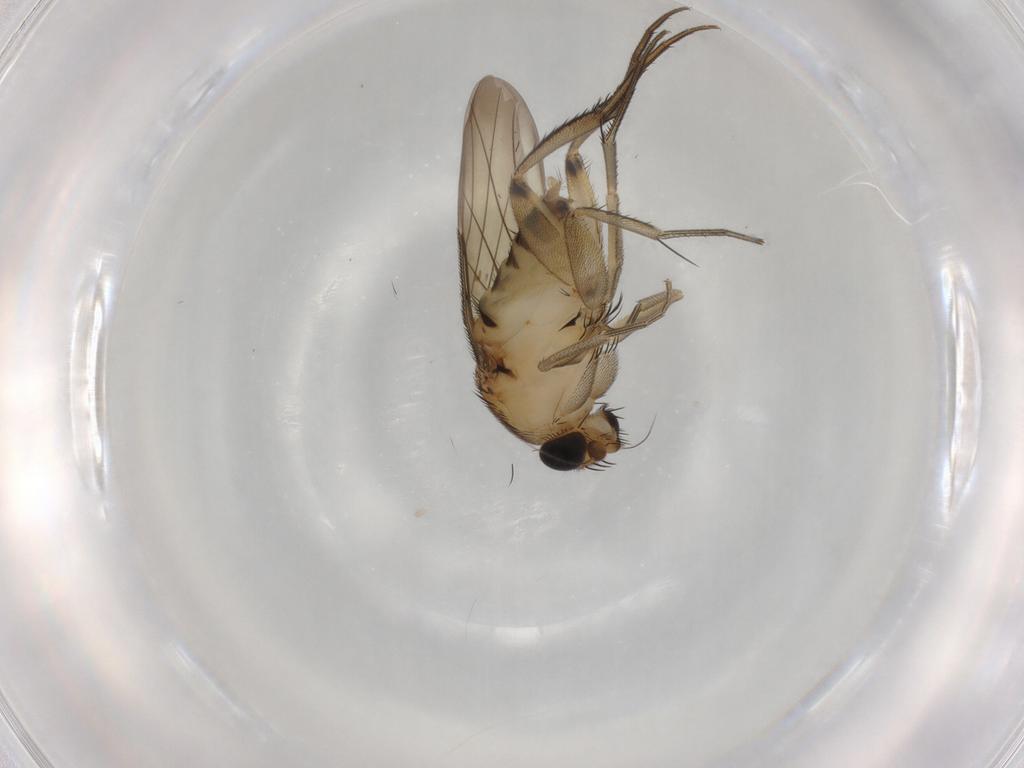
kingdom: Animalia
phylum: Arthropoda
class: Insecta
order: Diptera
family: Phoridae
